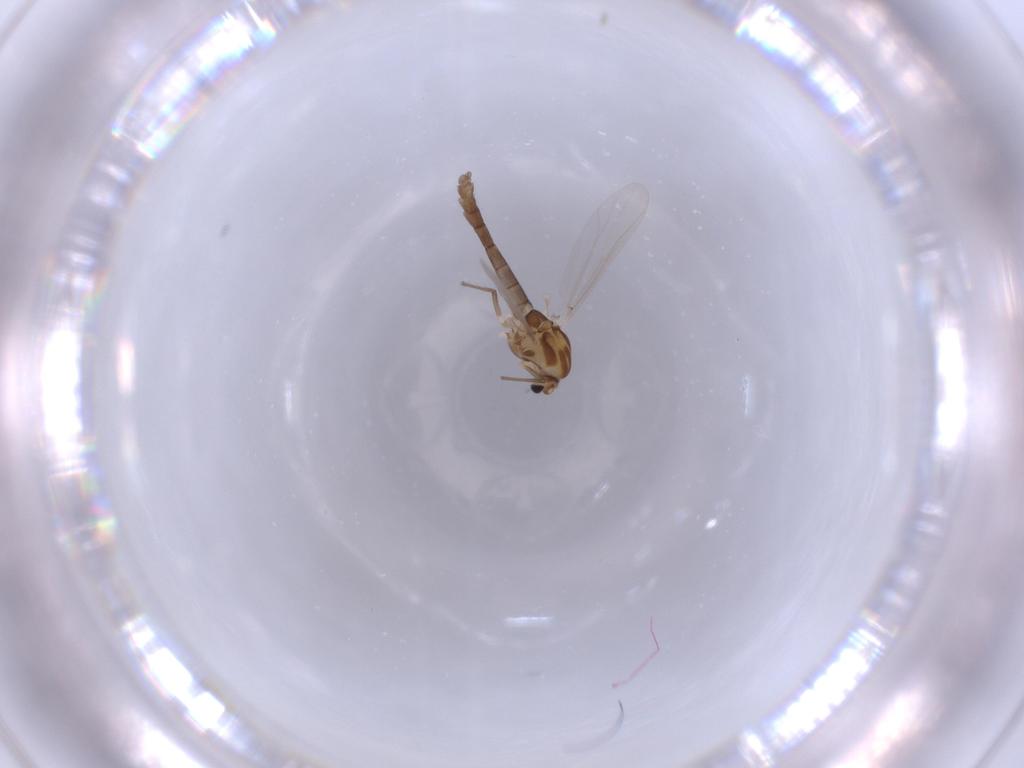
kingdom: Animalia
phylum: Arthropoda
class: Insecta
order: Diptera
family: Chironomidae
